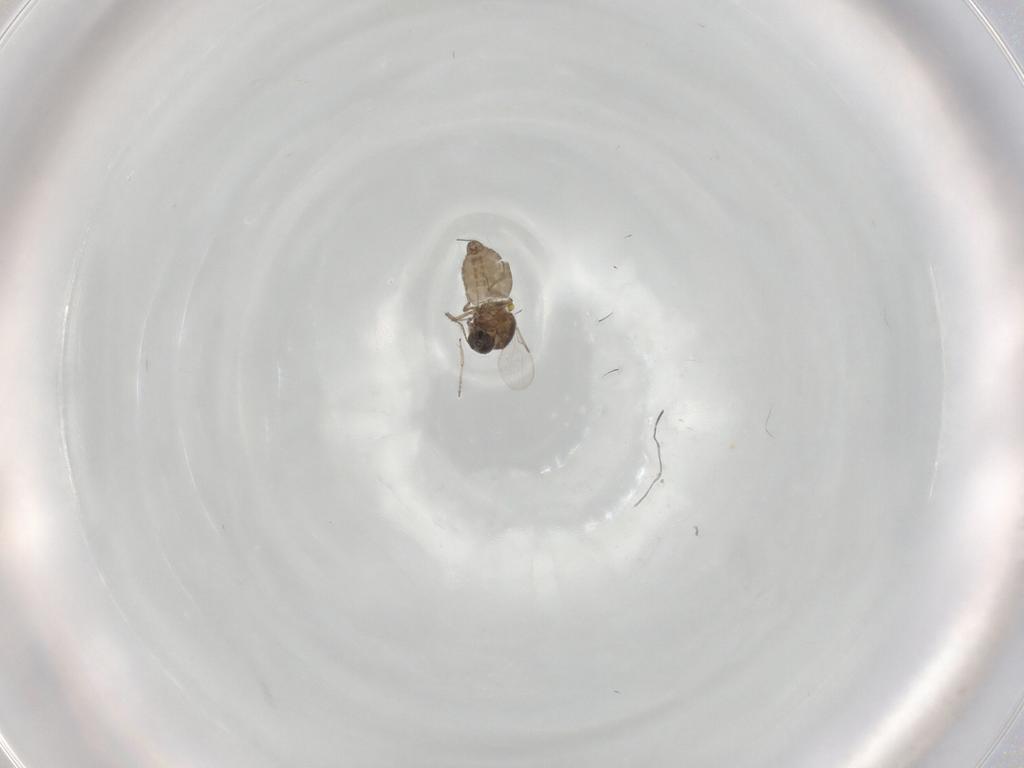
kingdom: Animalia
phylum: Arthropoda
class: Insecta
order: Diptera
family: Ceratopogonidae
